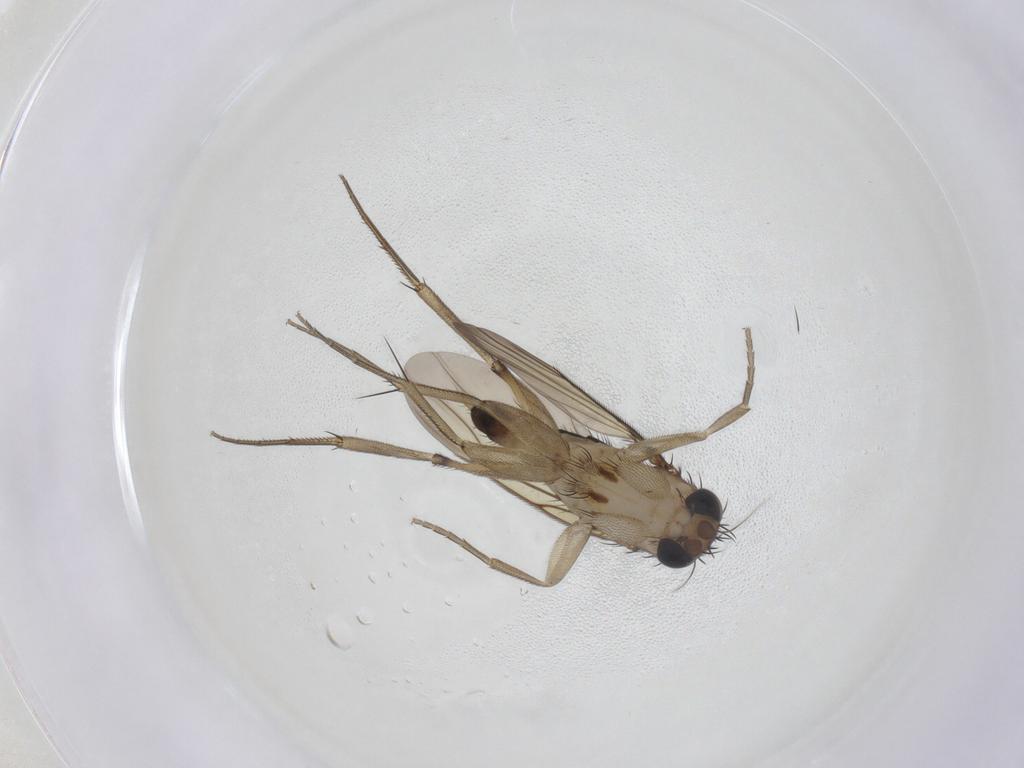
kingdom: Animalia
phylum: Arthropoda
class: Insecta
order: Diptera
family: Phoridae
